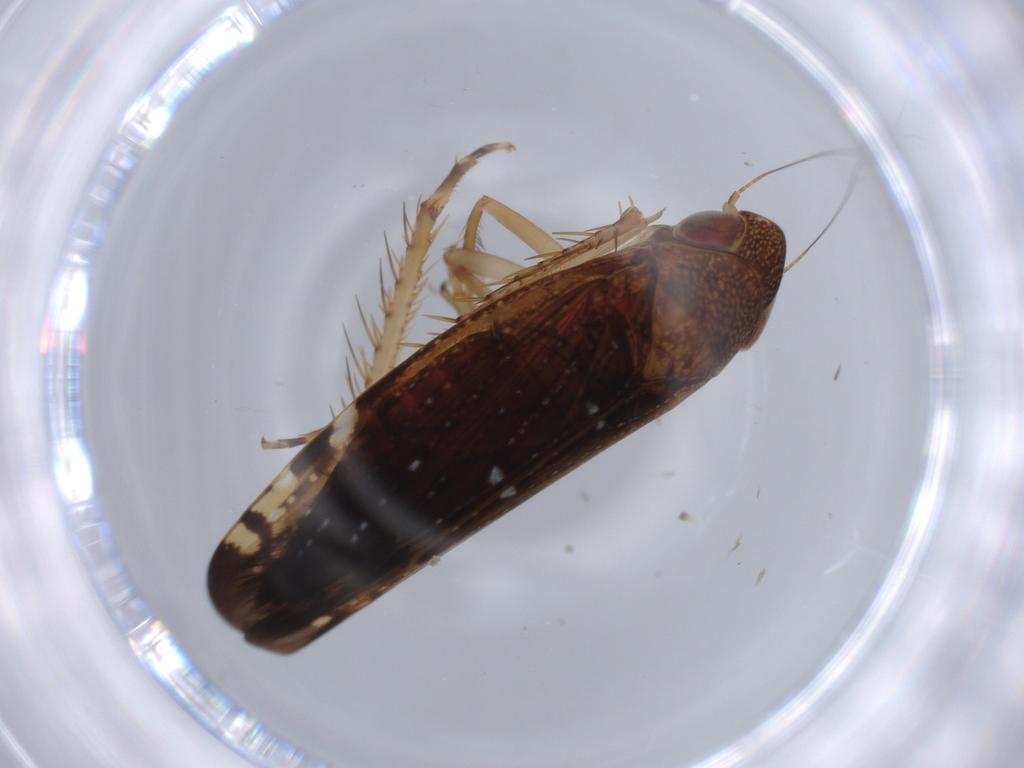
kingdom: Animalia
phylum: Arthropoda
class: Insecta
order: Hemiptera
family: Cicadellidae
